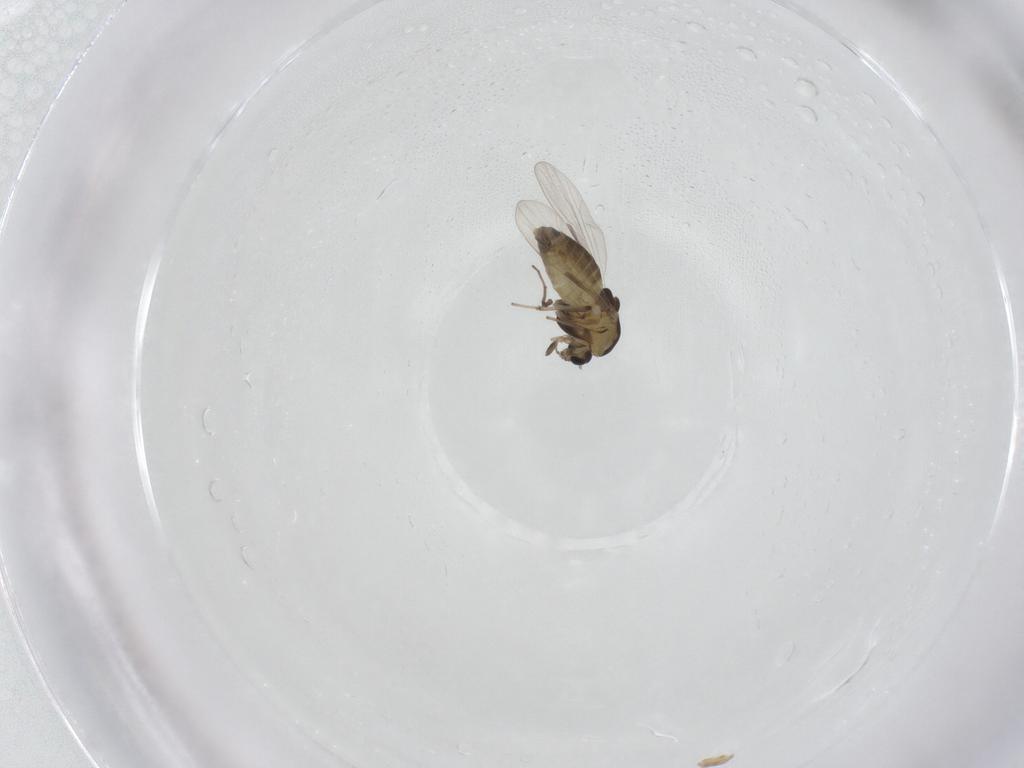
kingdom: Animalia
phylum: Arthropoda
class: Insecta
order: Diptera
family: Chironomidae
